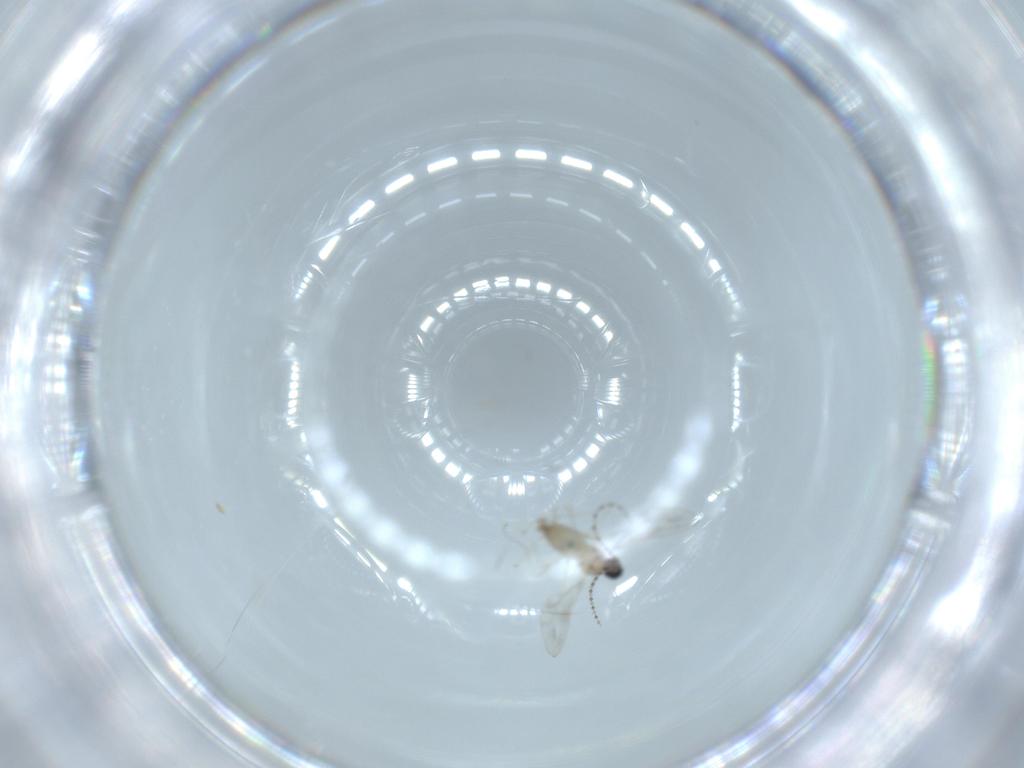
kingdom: Animalia
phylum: Arthropoda
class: Insecta
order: Diptera
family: Cecidomyiidae
